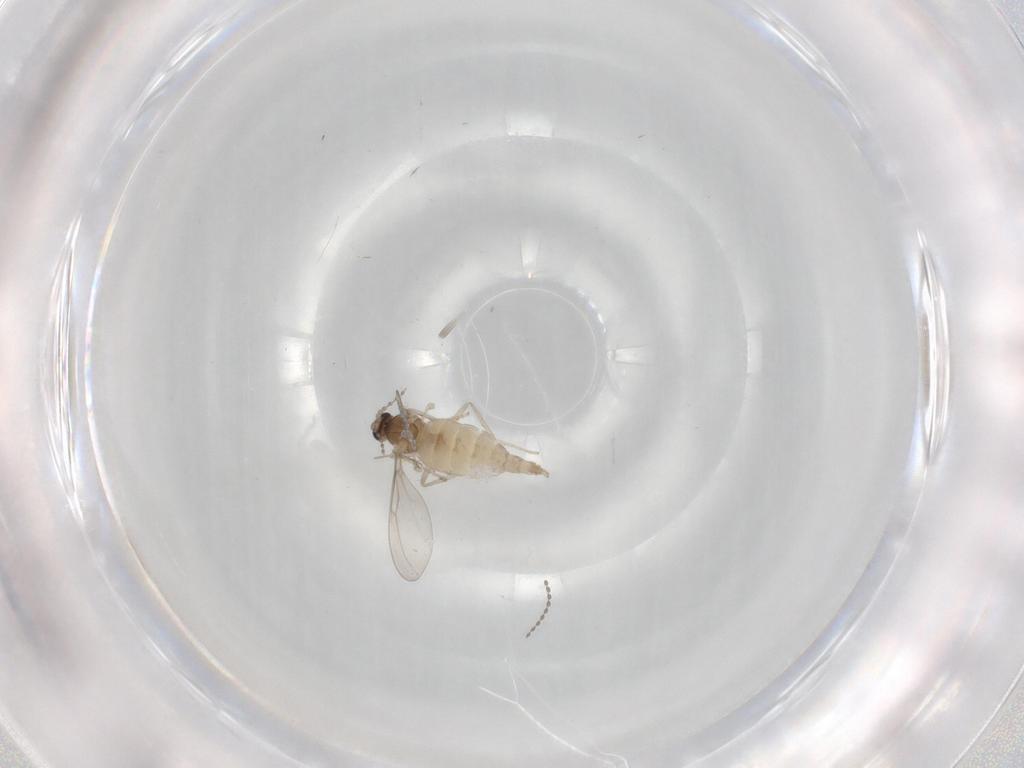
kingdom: Animalia
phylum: Arthropoda
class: Insecta
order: Diptera
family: Cecidomyiidae
